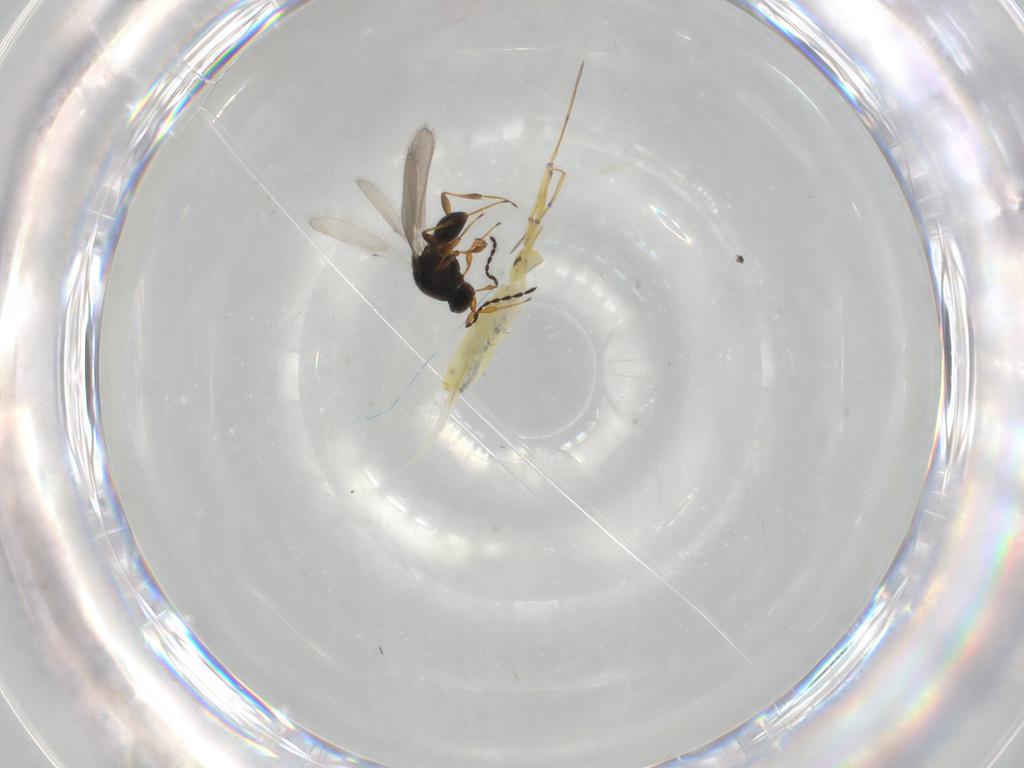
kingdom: Animalia
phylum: Arthropoda
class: Insecta
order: Hymenoptera
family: Platygastridae
